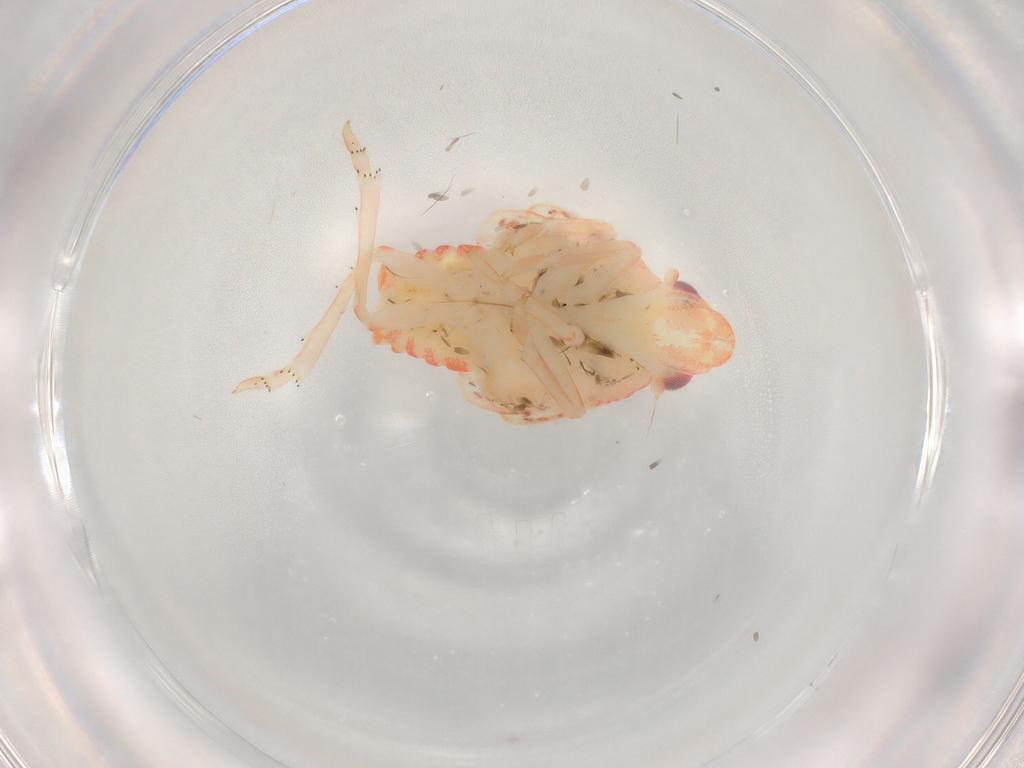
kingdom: Animalia
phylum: Arthropoda
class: Insecta
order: Hemiptera
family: Flatidae
